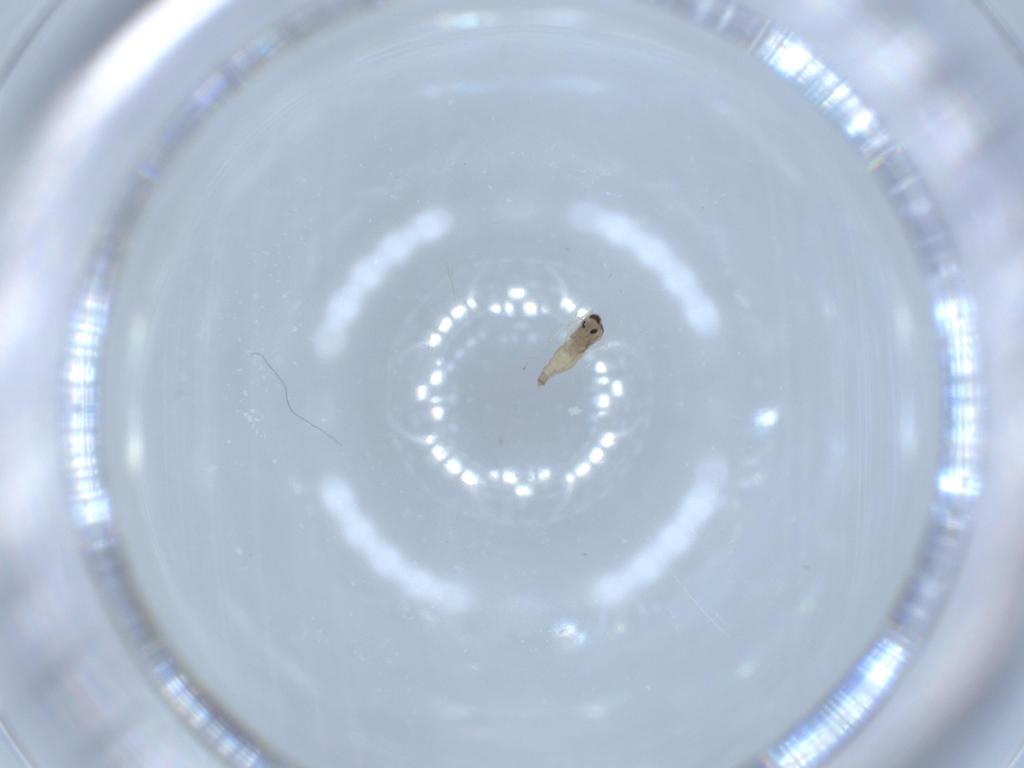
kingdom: Animalia
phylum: Arthropoda
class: Insecta
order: Diptera
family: Cecidomyiidae
